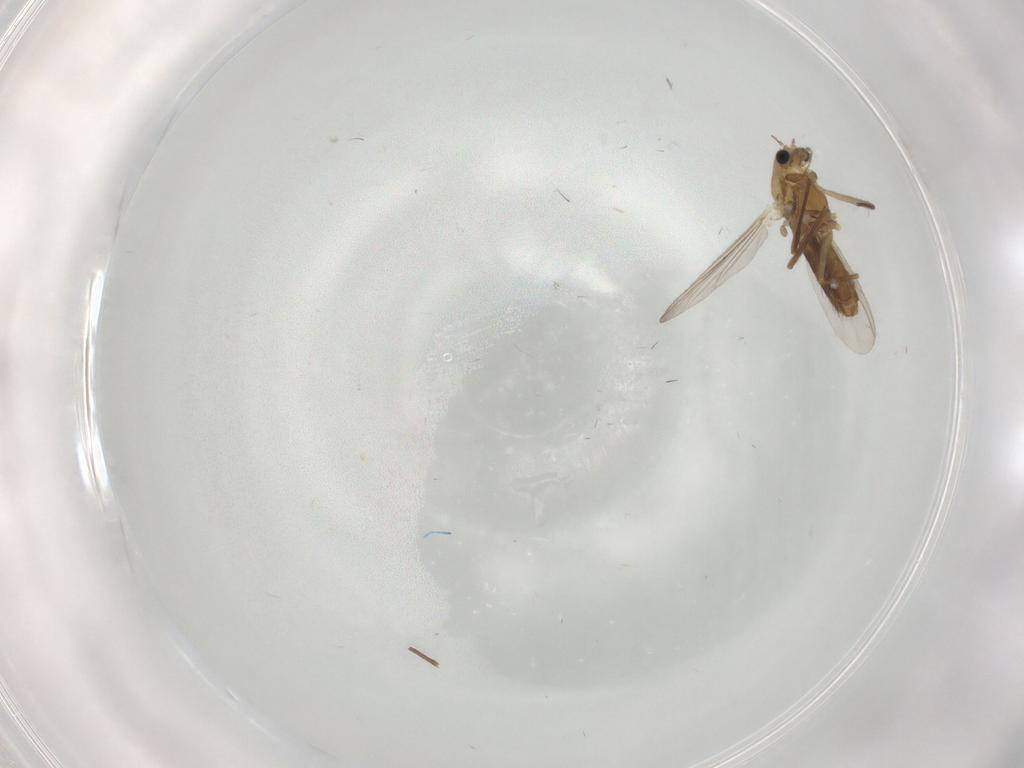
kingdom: Animalia
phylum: Arthropoda
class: Insecta
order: Diptera
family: Chironomidae
